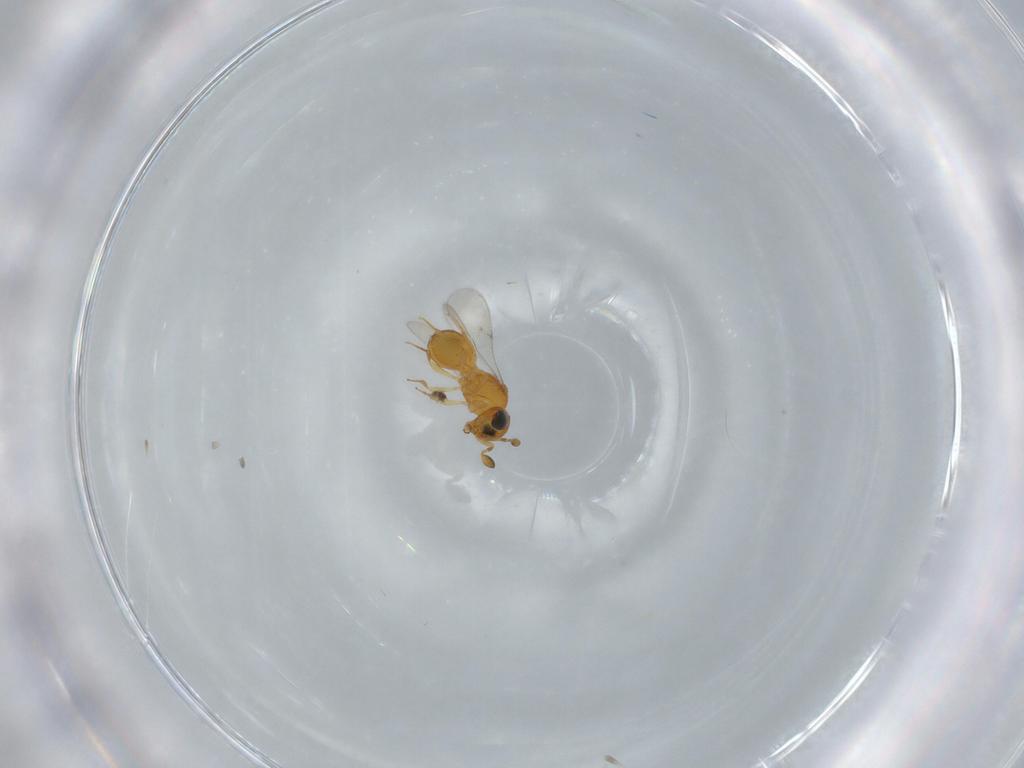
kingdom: Animalia
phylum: Arthropoda
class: Insecta
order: Hymenoptera
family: Scelionidae
